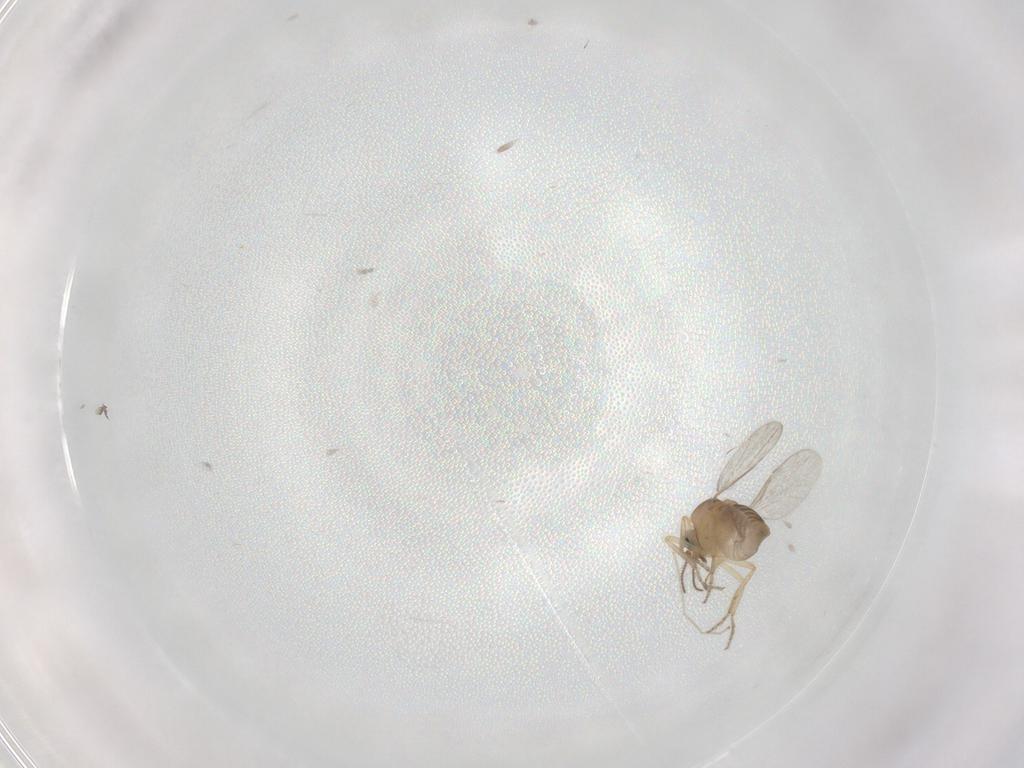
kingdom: Animalia
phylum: Arthropoda
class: Insecta
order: Diptera
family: Ceratopogonidae
